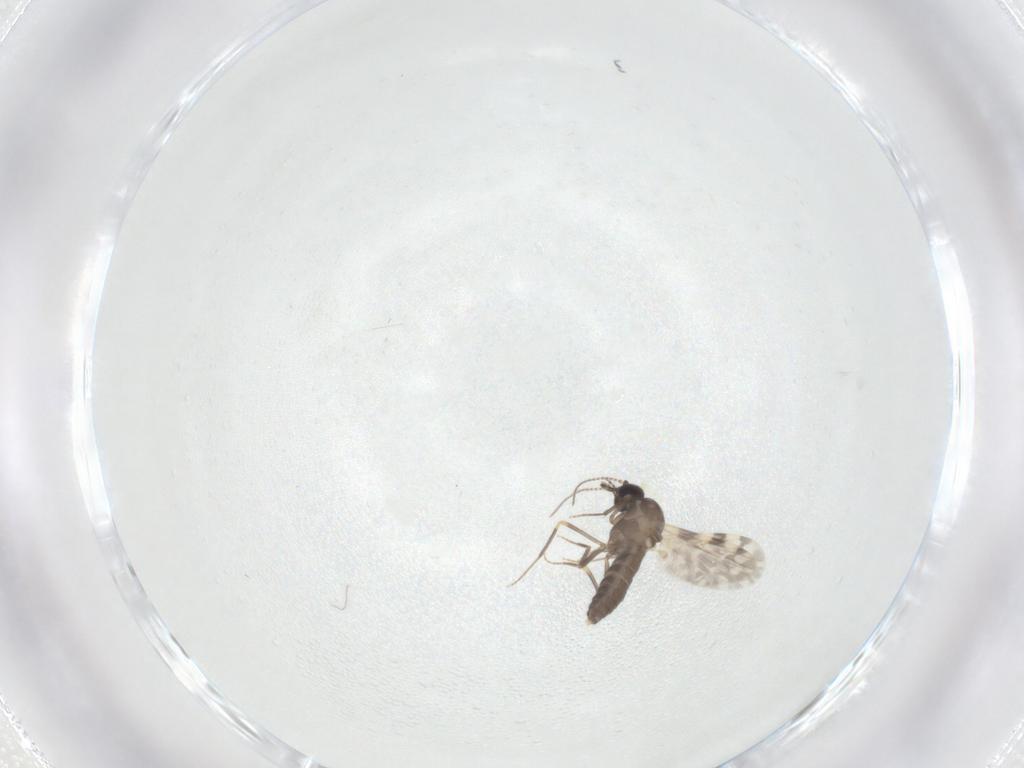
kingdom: Animalia
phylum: Arthropoda
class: Insecta
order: Diptera
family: Ceratopogonidae
